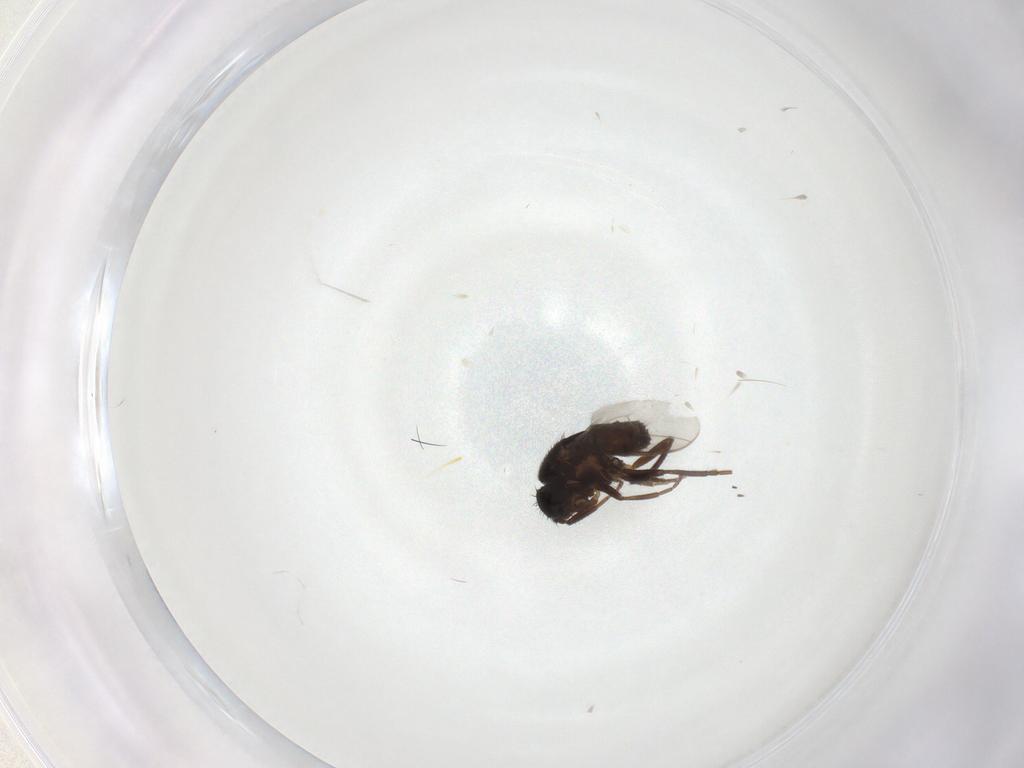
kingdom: Animalia
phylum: Arthropoda
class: Insecta
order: Diptera
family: Sphaeroceridae
